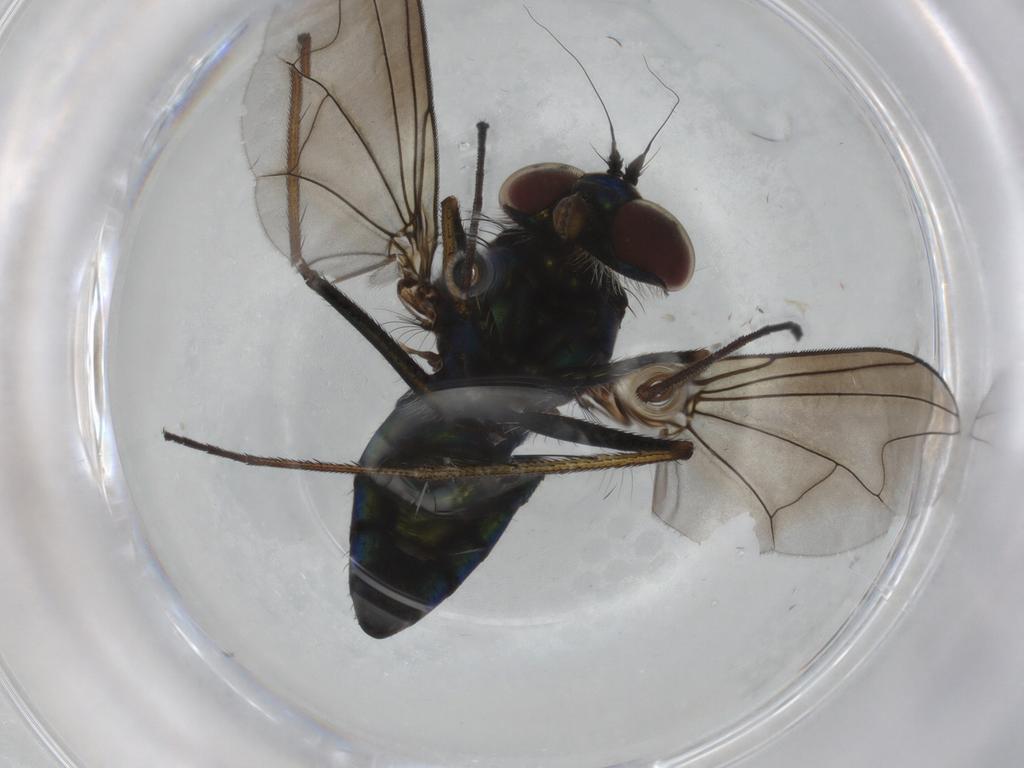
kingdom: Animalia
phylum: Arthropoda
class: Insecta
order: Diptera
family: Dolichopodidae
